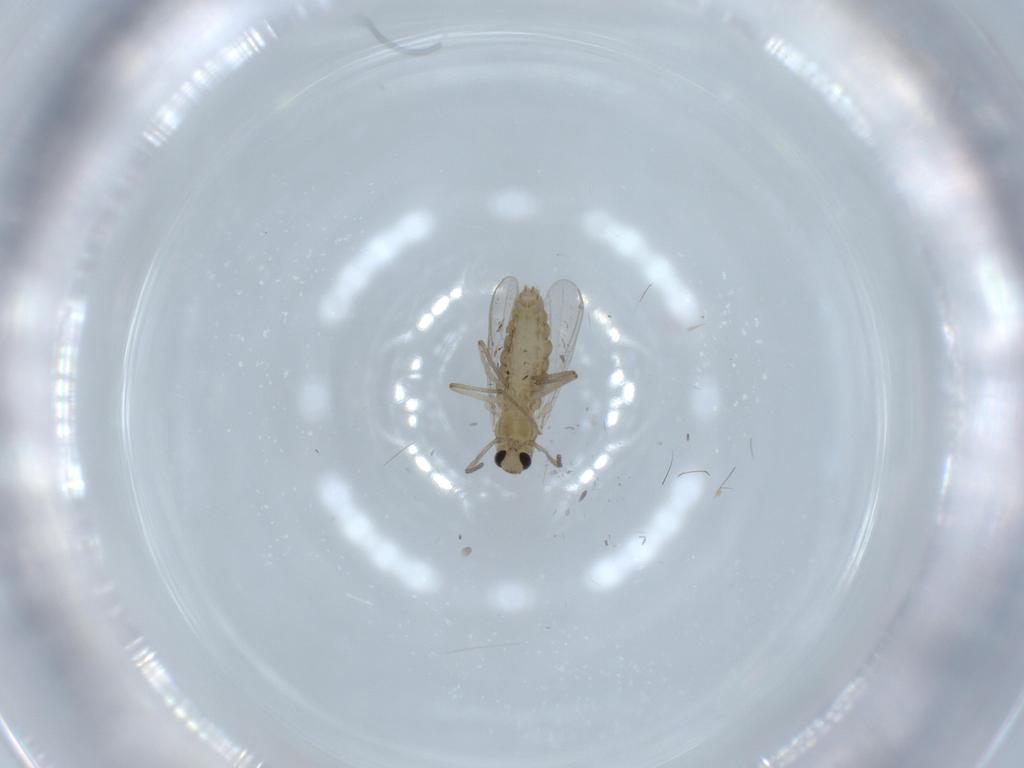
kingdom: Animalia
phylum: Arthropoda
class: Insecta
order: Diptera
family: Chironomidae
